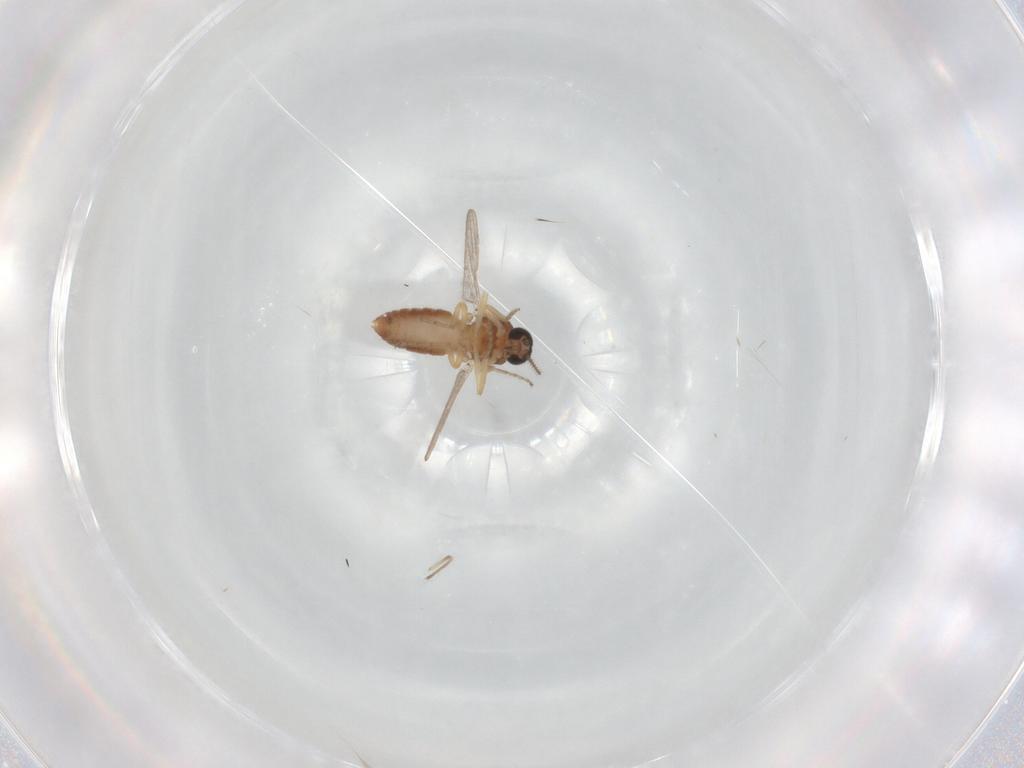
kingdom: Animalia
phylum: Arthropoda
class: Insecta
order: Diptera
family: Ceratopogonidae
